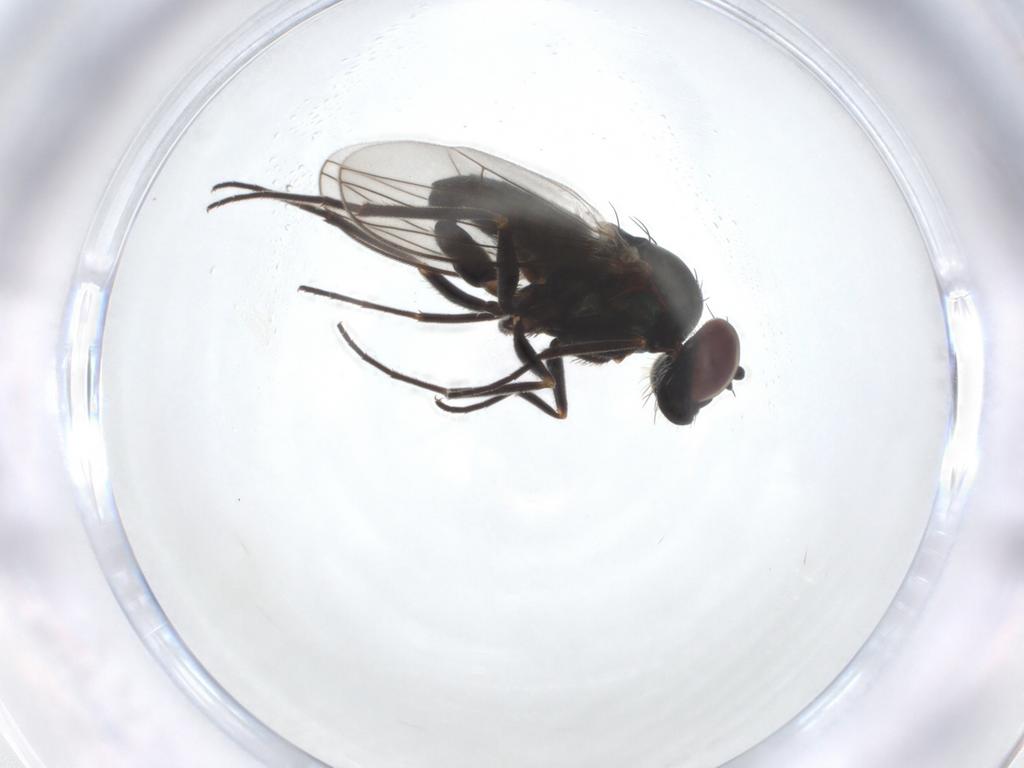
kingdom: Animalia
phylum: Arthropoda
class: Insecta
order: Diptera
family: Dolichopodidae
